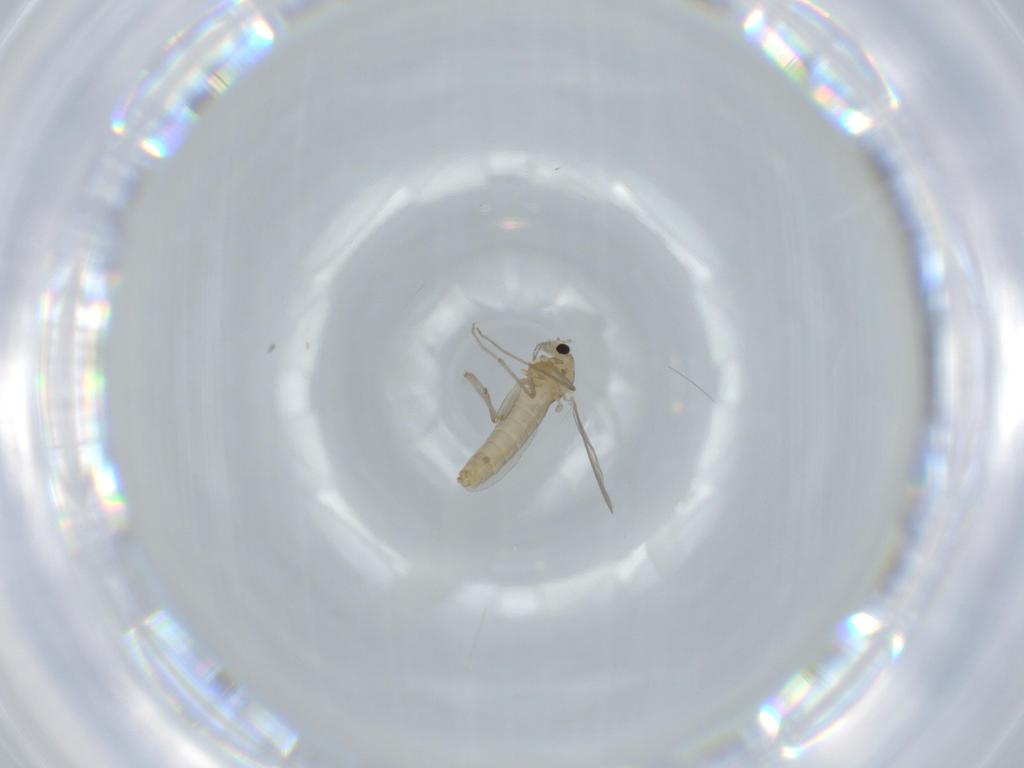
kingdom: Animalia
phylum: Arthropoda
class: Insecta
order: Diptera
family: Chironomidae
